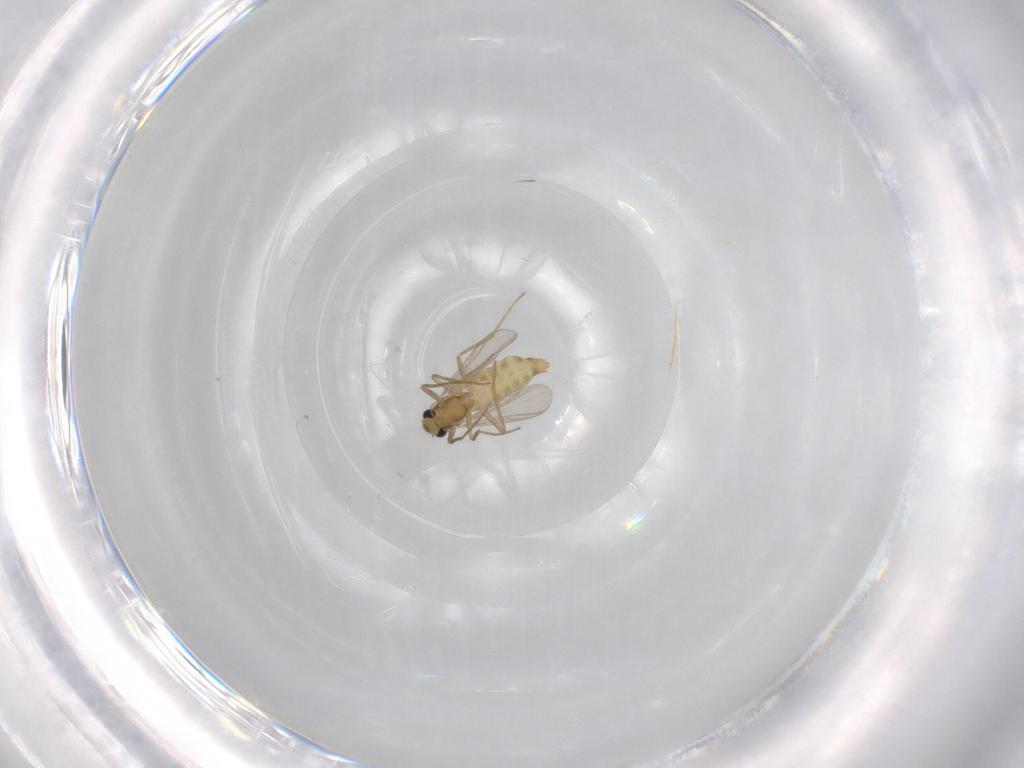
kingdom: Animalia
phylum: Arthropoda
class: Insecta
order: Diptera
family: Chironomidae
